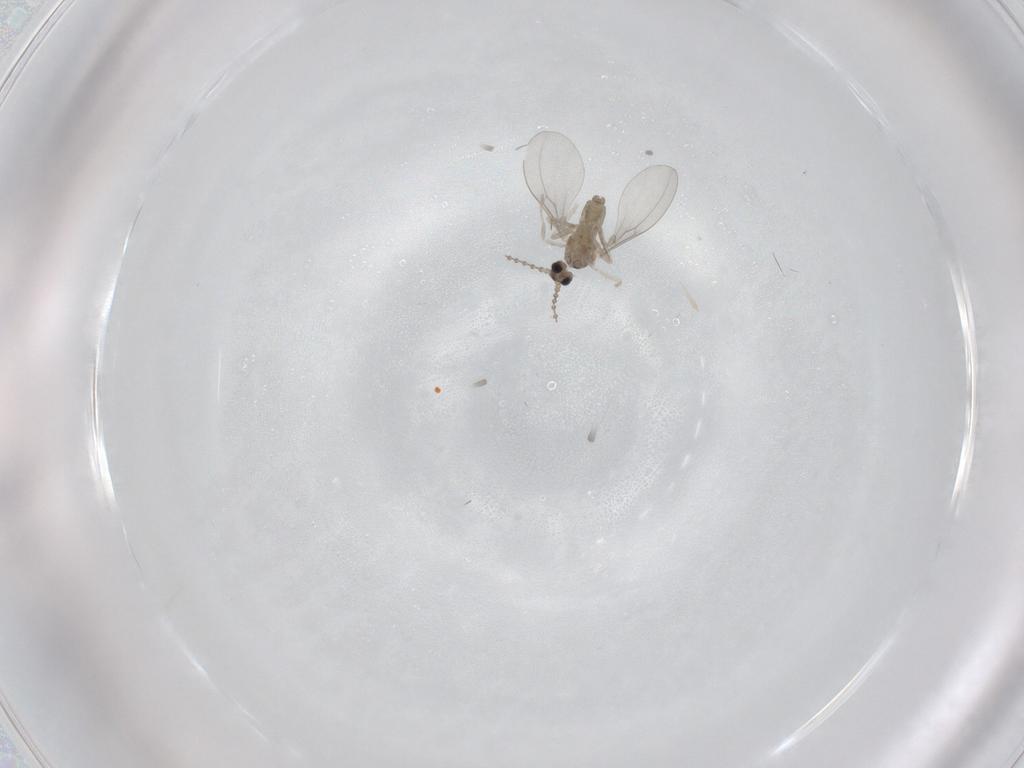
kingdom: Animalia
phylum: Arthropoda
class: Insecta
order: Diptera
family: Cecidomyiidae
